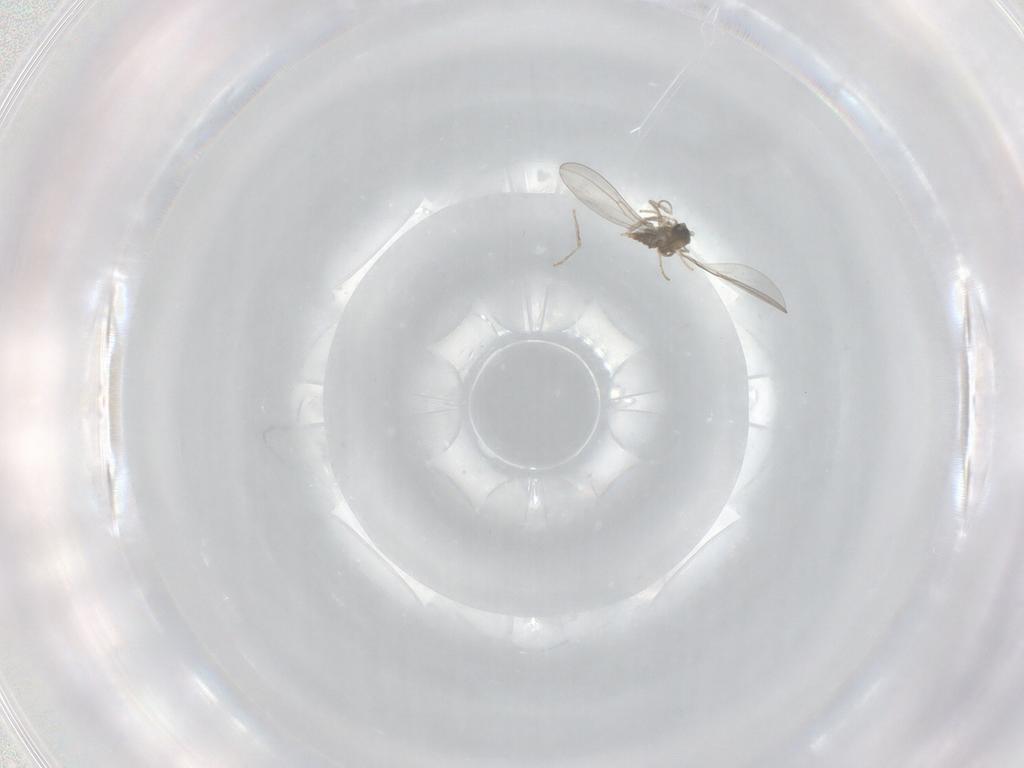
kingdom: Animalia
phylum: Arthropoda
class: Insecta
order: Diptera
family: Cecidomyiidae
